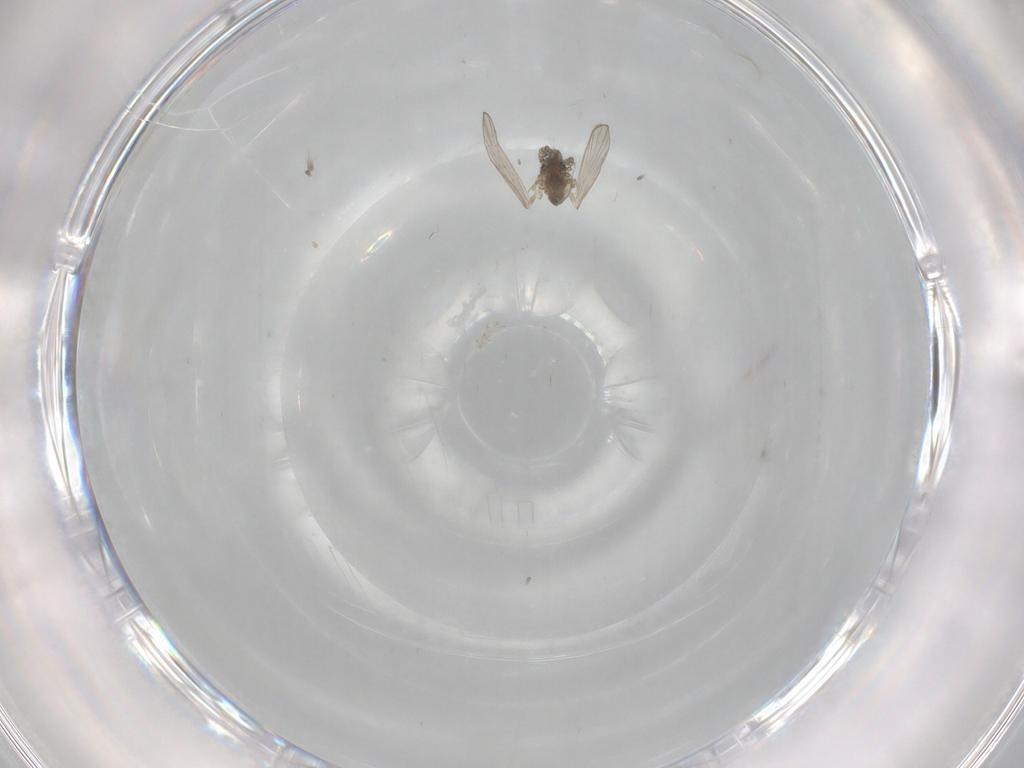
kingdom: Animalia
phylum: Arthropoda
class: Insecta
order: Diptera
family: Psychodidae
